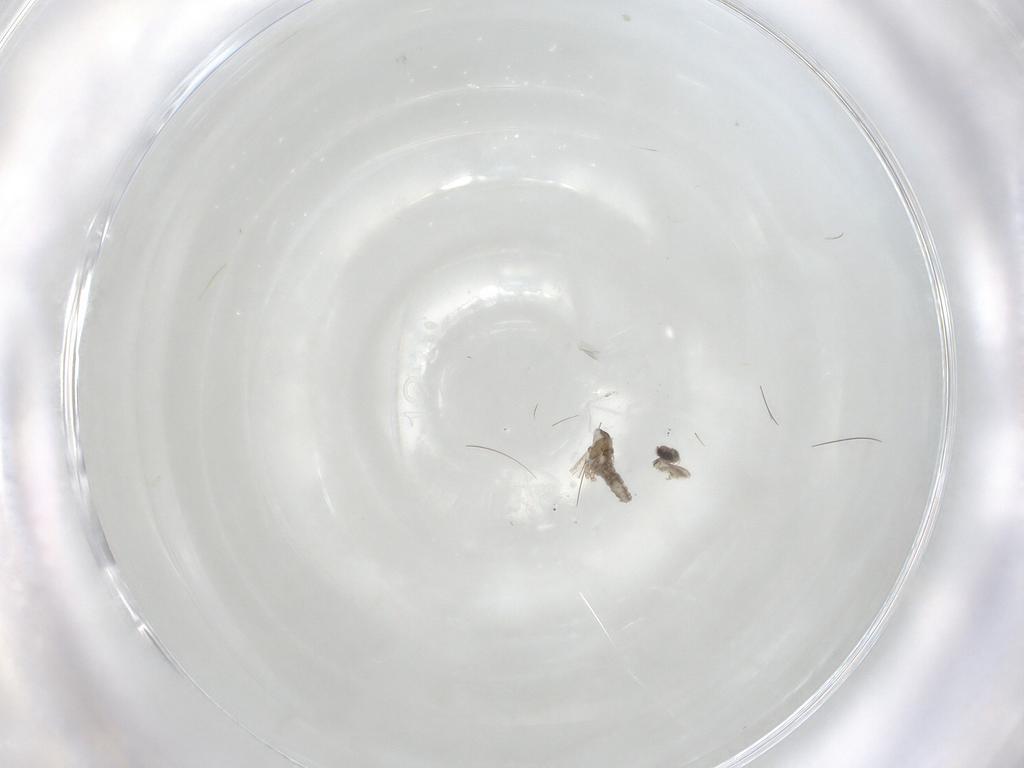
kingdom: Animalia
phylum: Arthropoda
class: Insecta
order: Diptera
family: Cecidomyiidae
